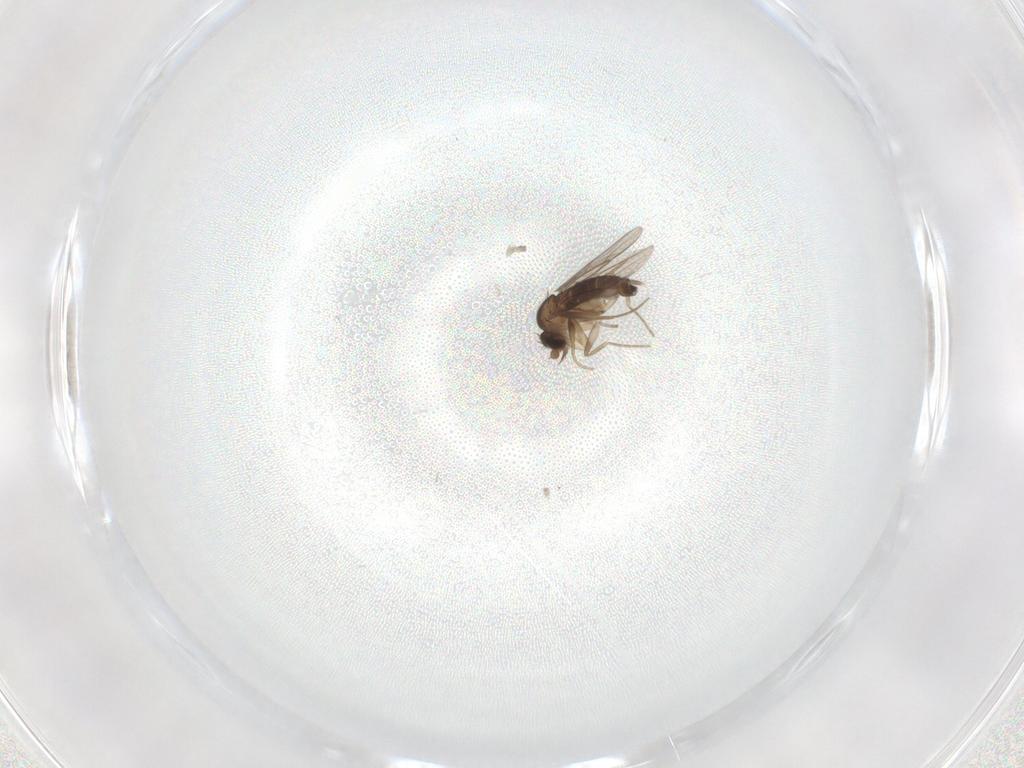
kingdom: Animalia
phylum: Arthropoda
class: Insecta
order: Diptera
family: Phoridae
